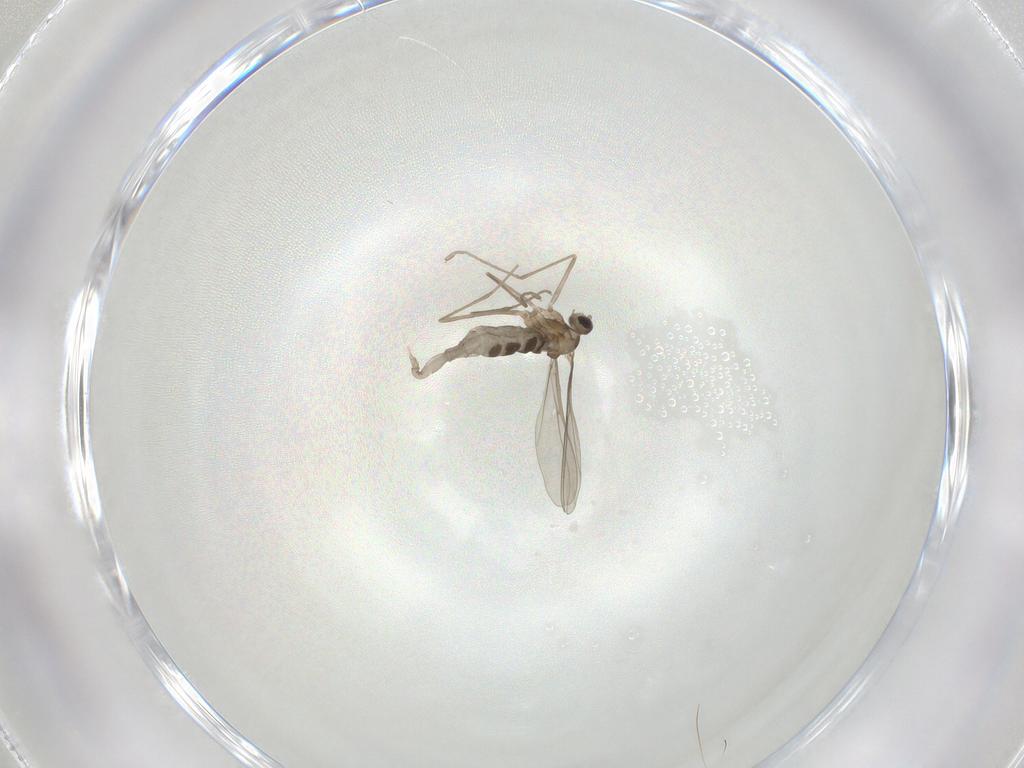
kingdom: Animalia
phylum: Arthropoda
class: Insecta
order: Diptera
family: Cecidomyiidae
